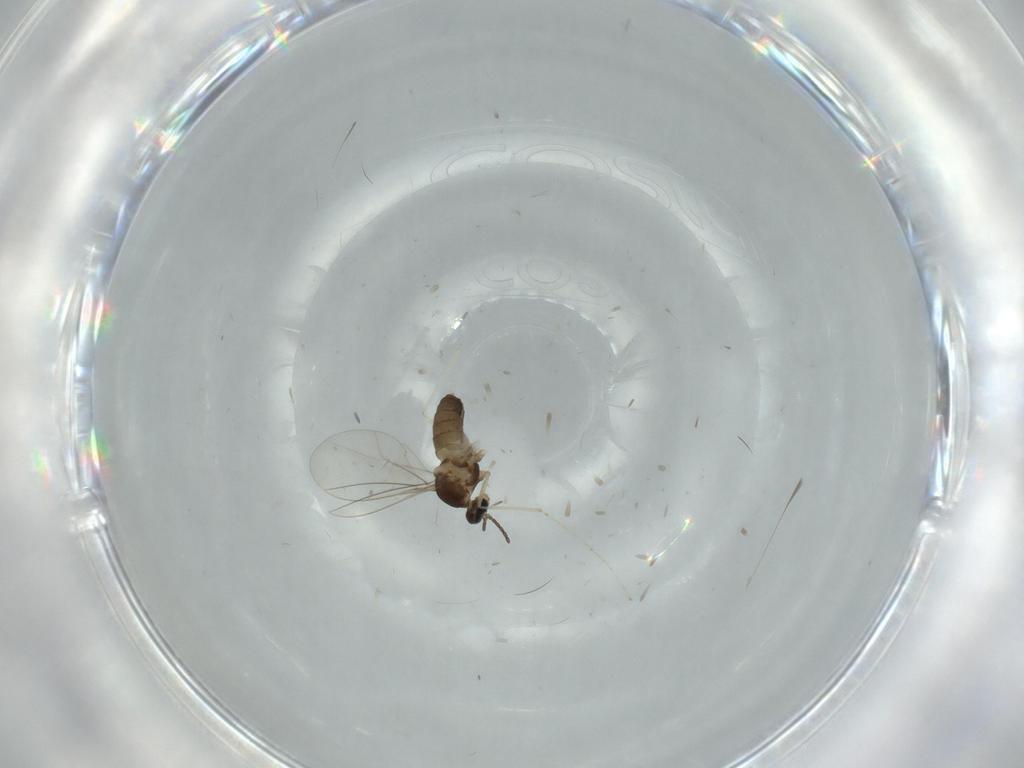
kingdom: Animalia
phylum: Arthropoda
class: Insecta
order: Diptera
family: Cecidomyiidae
